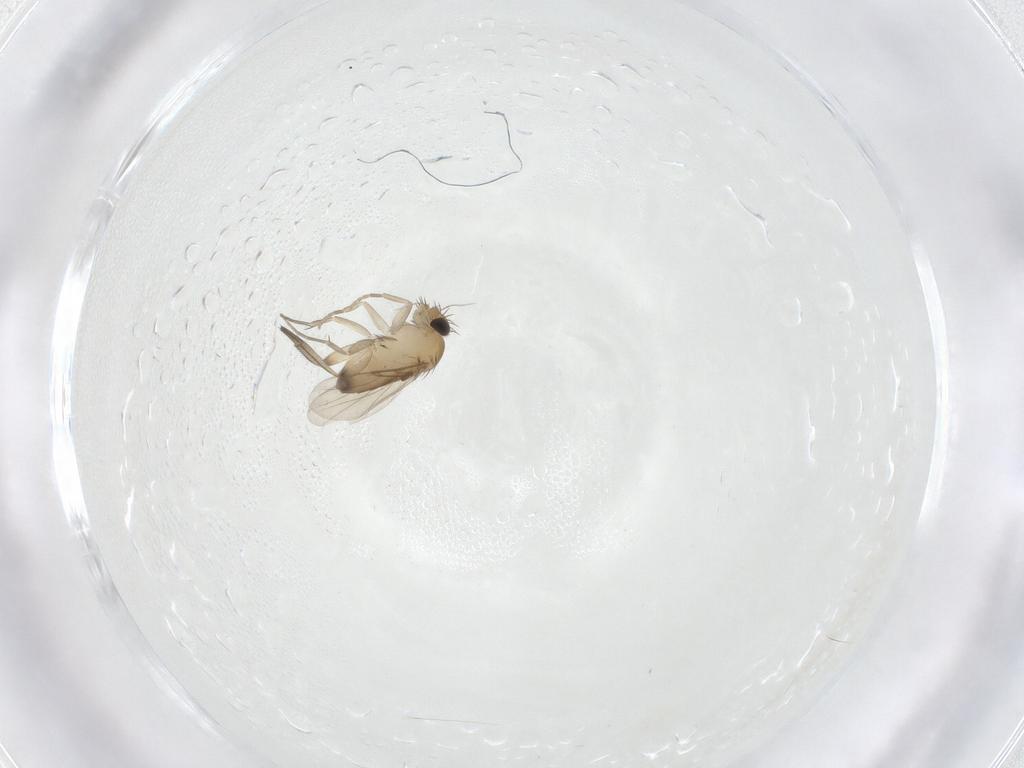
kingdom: Animalia
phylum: Arthropoda
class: Insecta
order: Diptera
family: Phoridae
